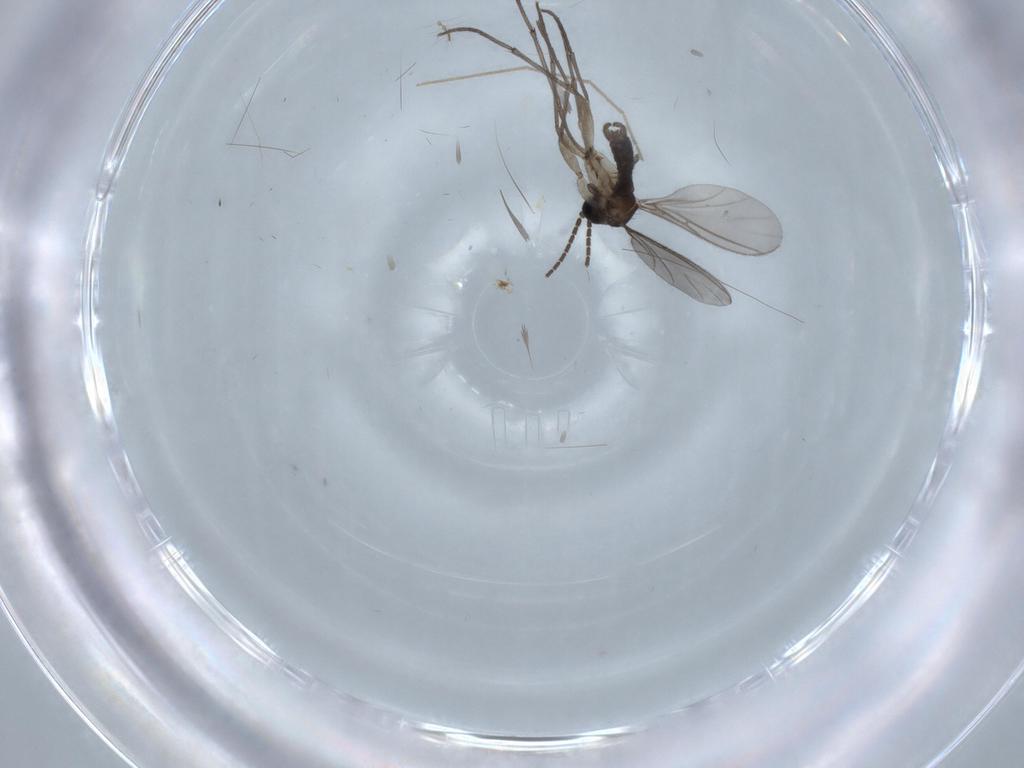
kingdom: Animalia
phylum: Arthropoda
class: Insecta
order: Diptera
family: Sciaridae
